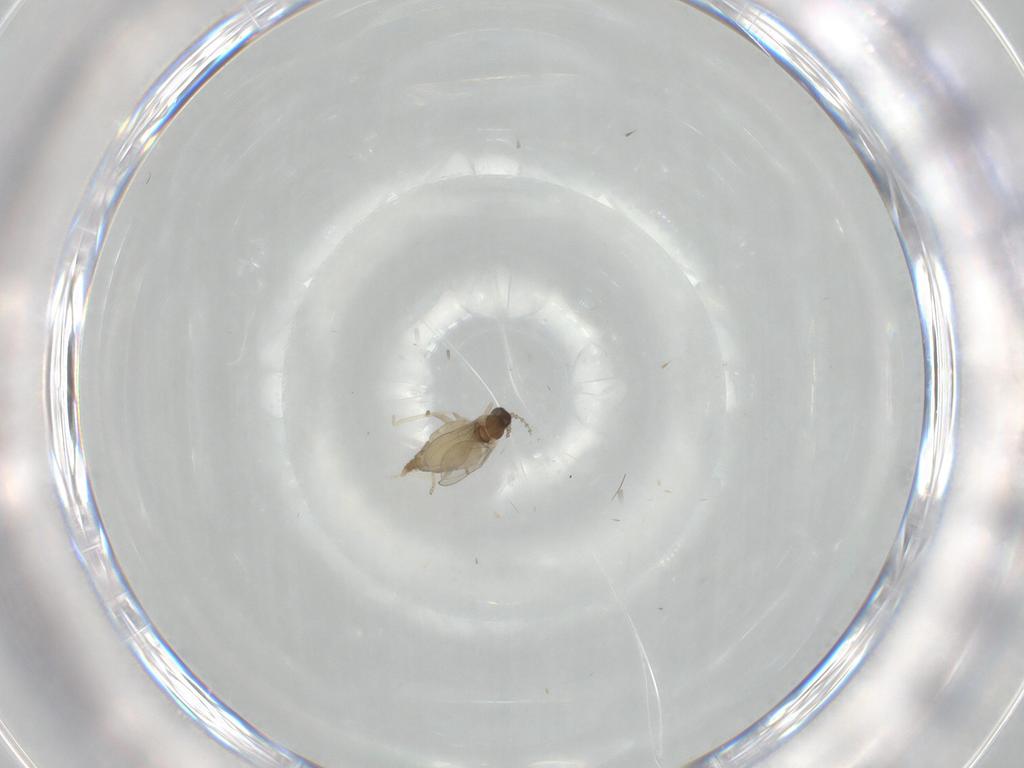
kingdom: Animalia
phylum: Arthropoda
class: Insecta
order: Diptera
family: Cecidomyiidae
